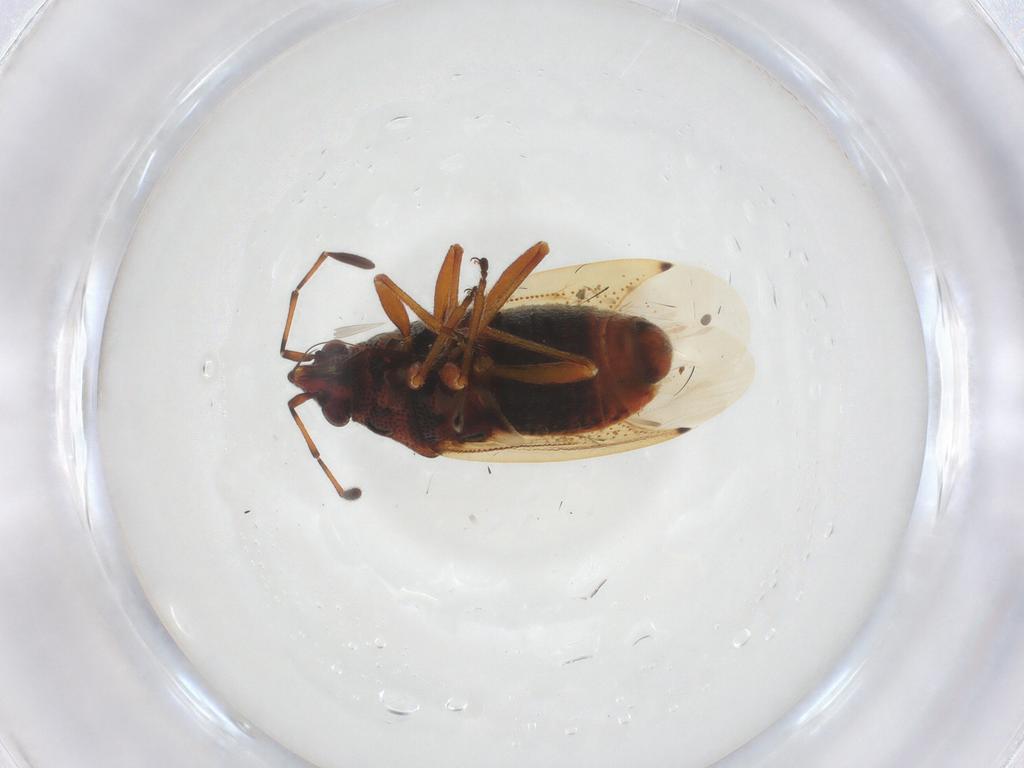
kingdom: Animalia
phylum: Arthropoda
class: Insecta
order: Hemiptera
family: Lygaeidae
